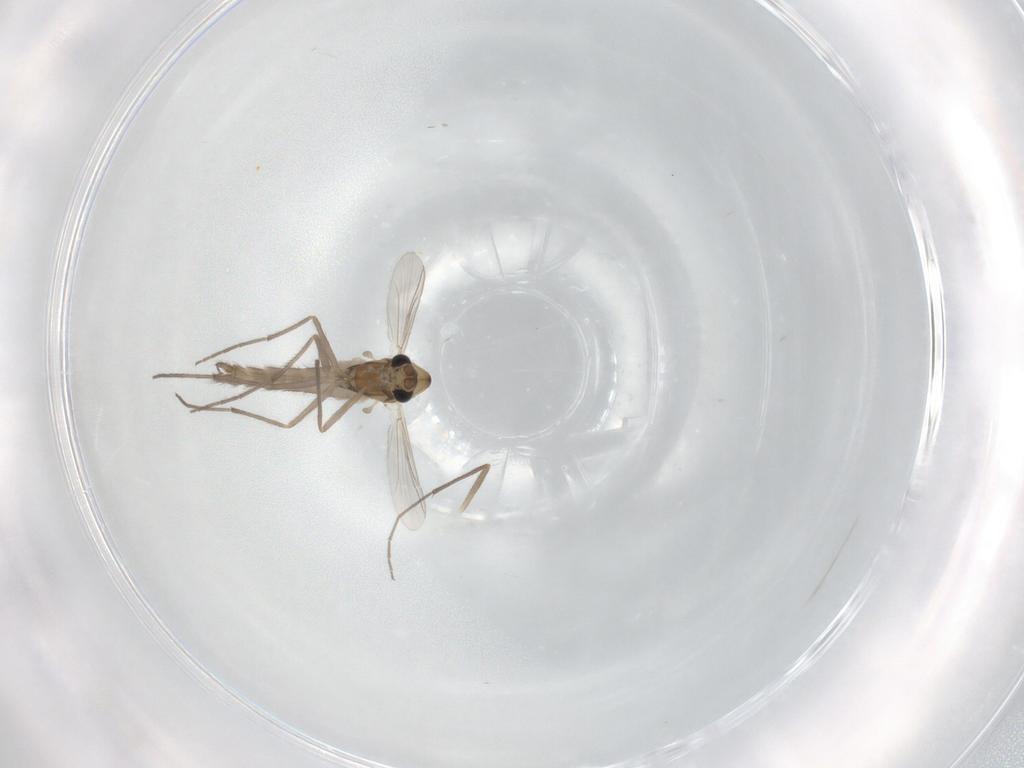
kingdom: Animalia
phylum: Arthropoda
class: Insecta
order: Diptera
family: Chironomidae
